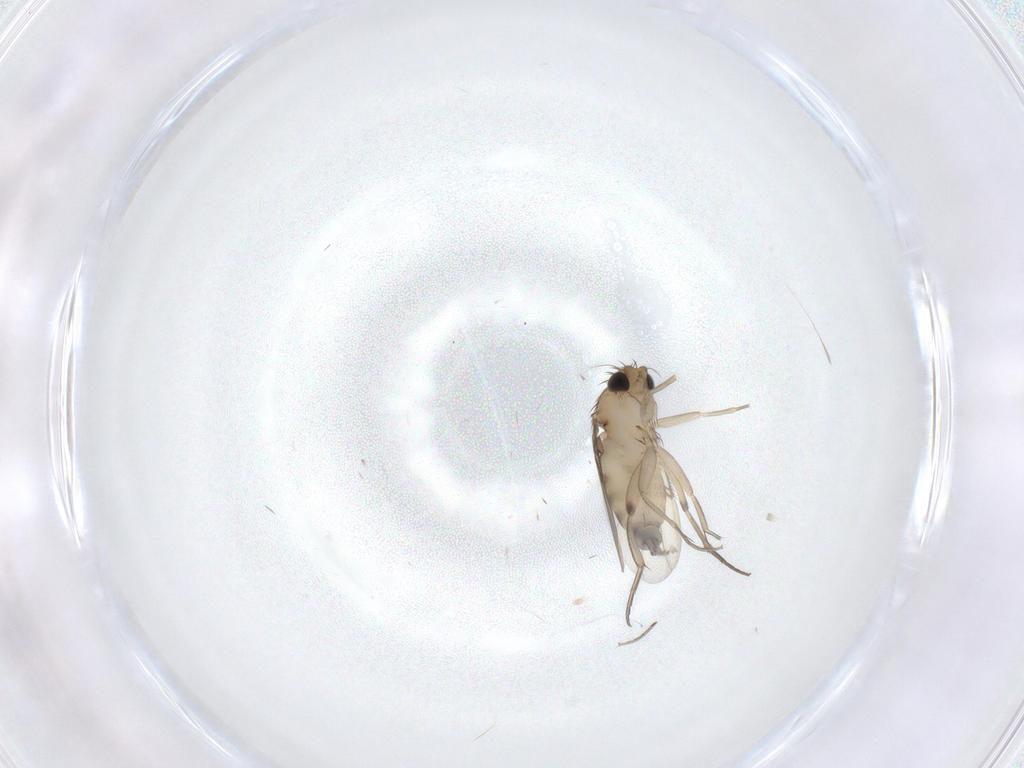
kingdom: Animalia
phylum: Arthropoda
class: Insecta
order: Diptera
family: Phoridae
